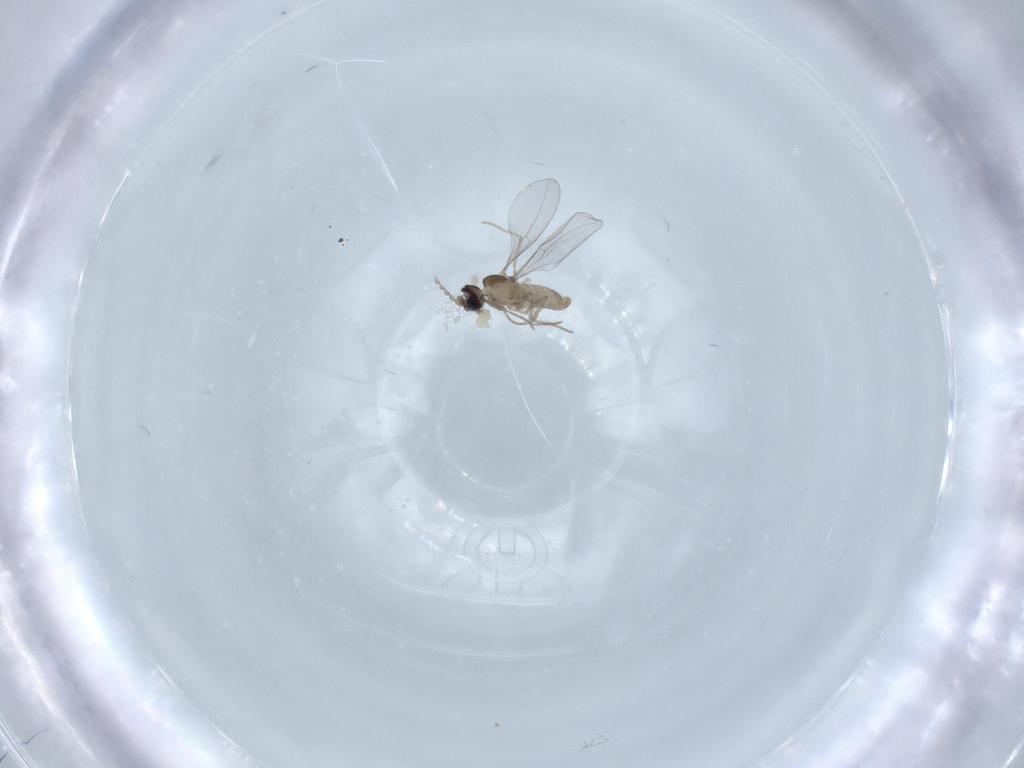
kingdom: Animalia
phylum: Arthropoda
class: Insecta
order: Diptera
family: Cecidomyiidae
